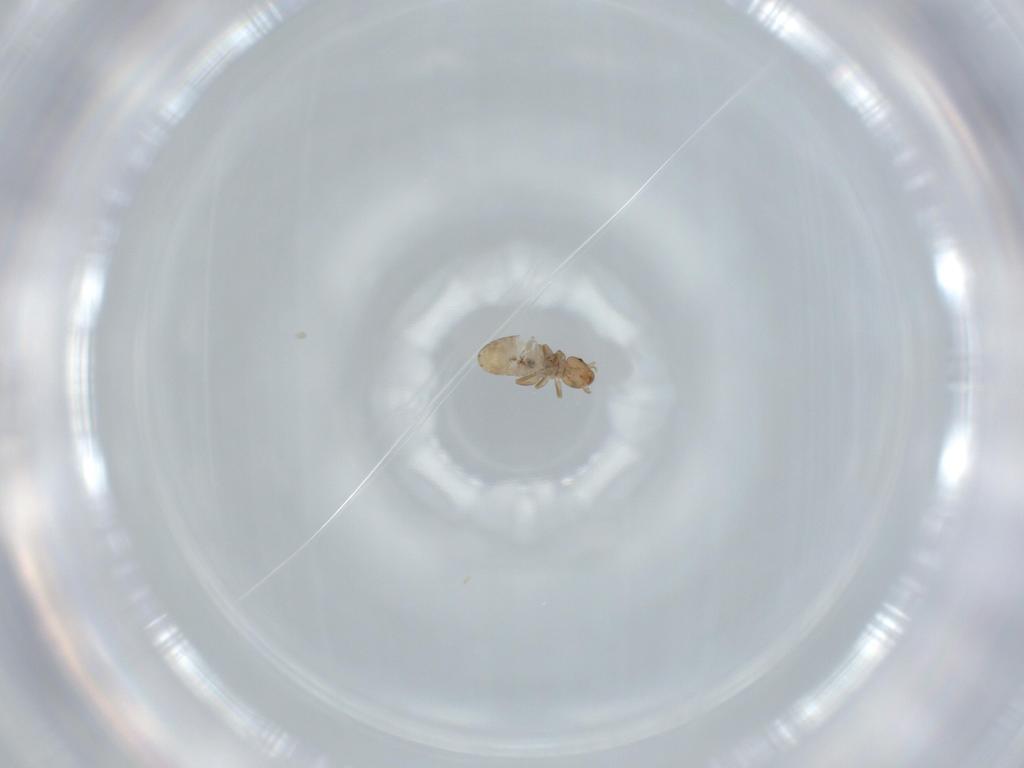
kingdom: Animalia
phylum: Arthropoda
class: Insecta
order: Psocodea
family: Liposcelididae
